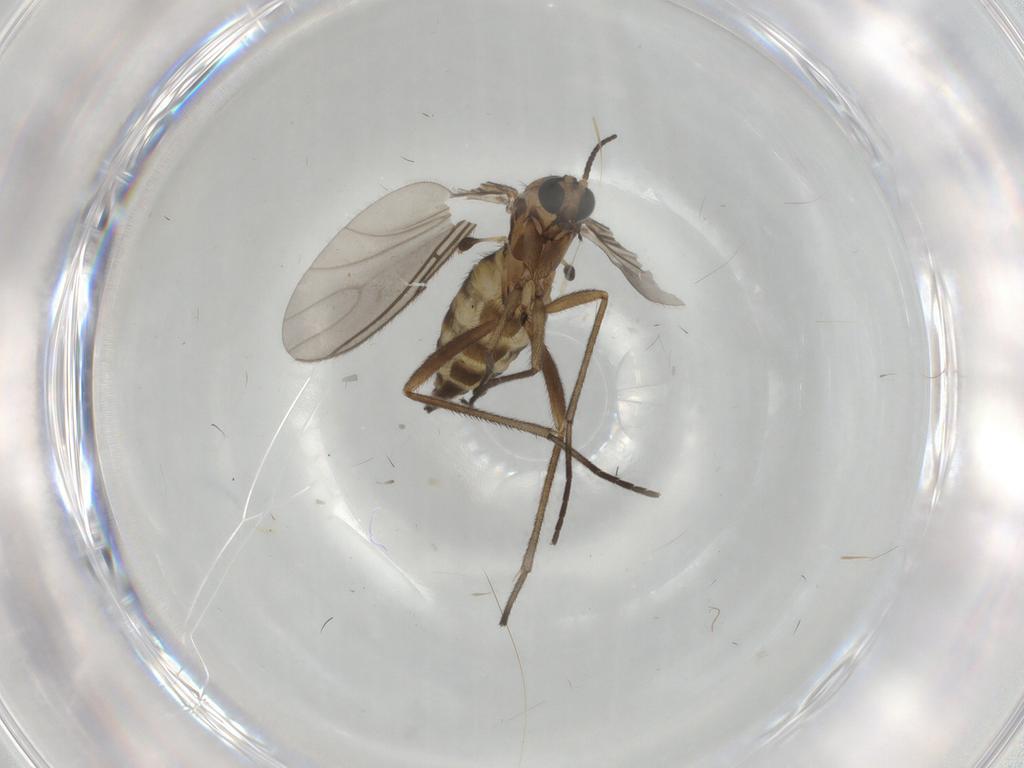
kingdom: Animalia
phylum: Arthropoda
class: Insecta
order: Diptera
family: Sciaridae
